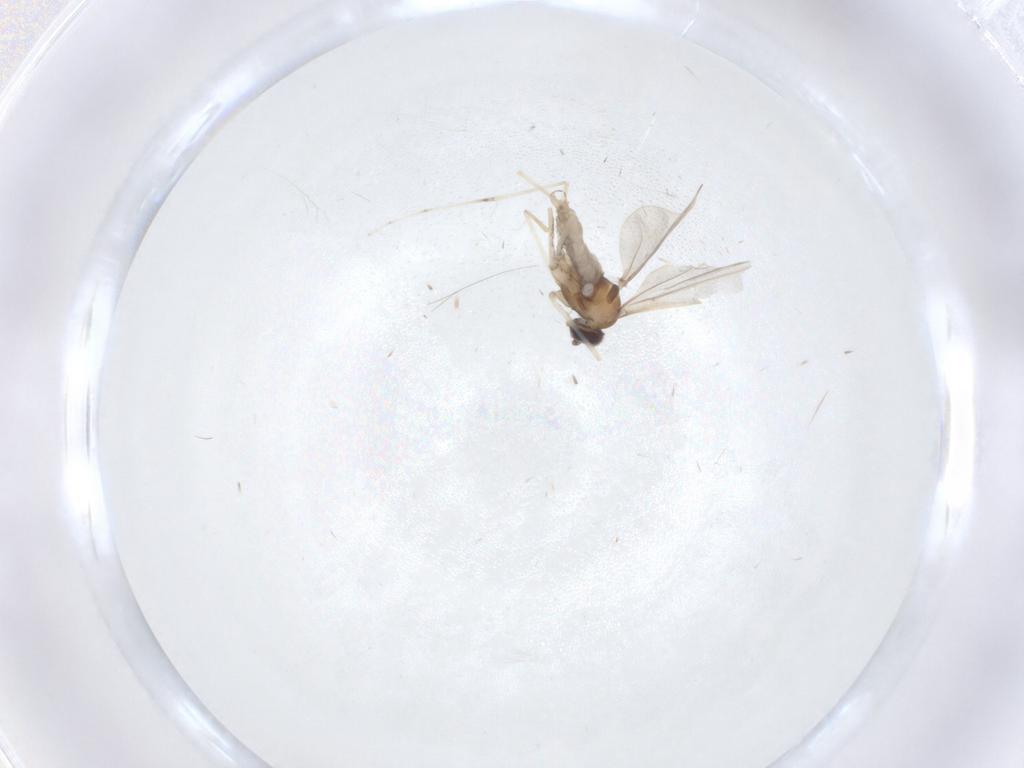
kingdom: Animalia
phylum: Arthropoda
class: Insecta
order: Diptera
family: Cecidomyiidae
